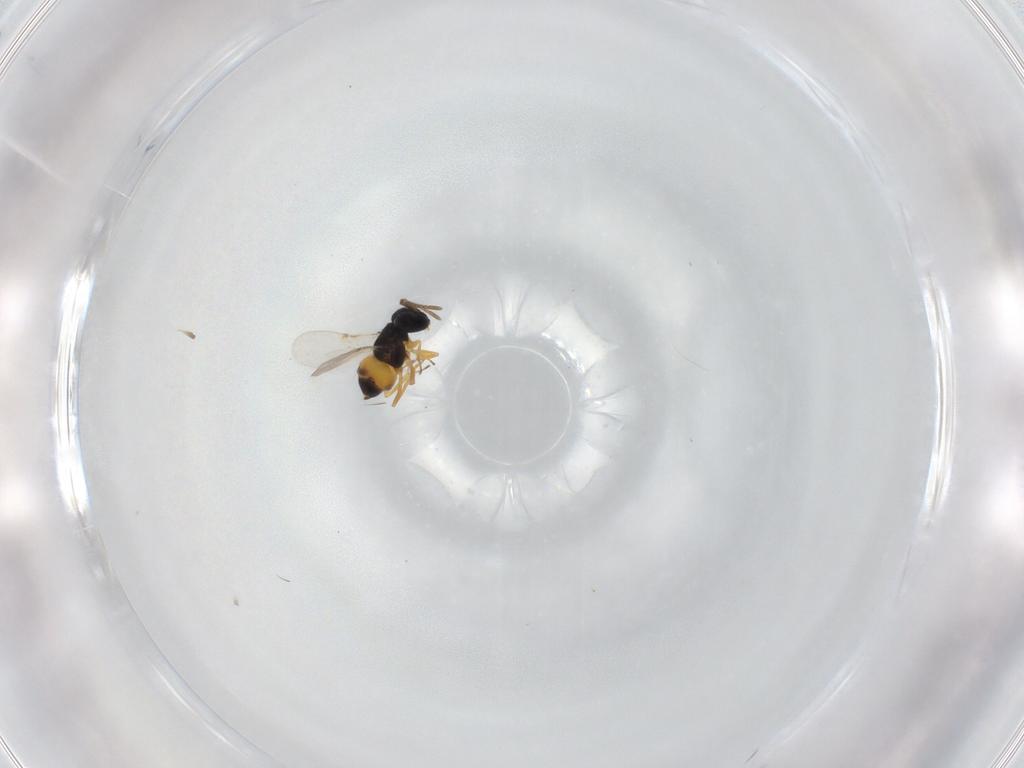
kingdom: Animalia
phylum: Arthropoda
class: Insecta
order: Hymenoptera
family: Encyrtidae
